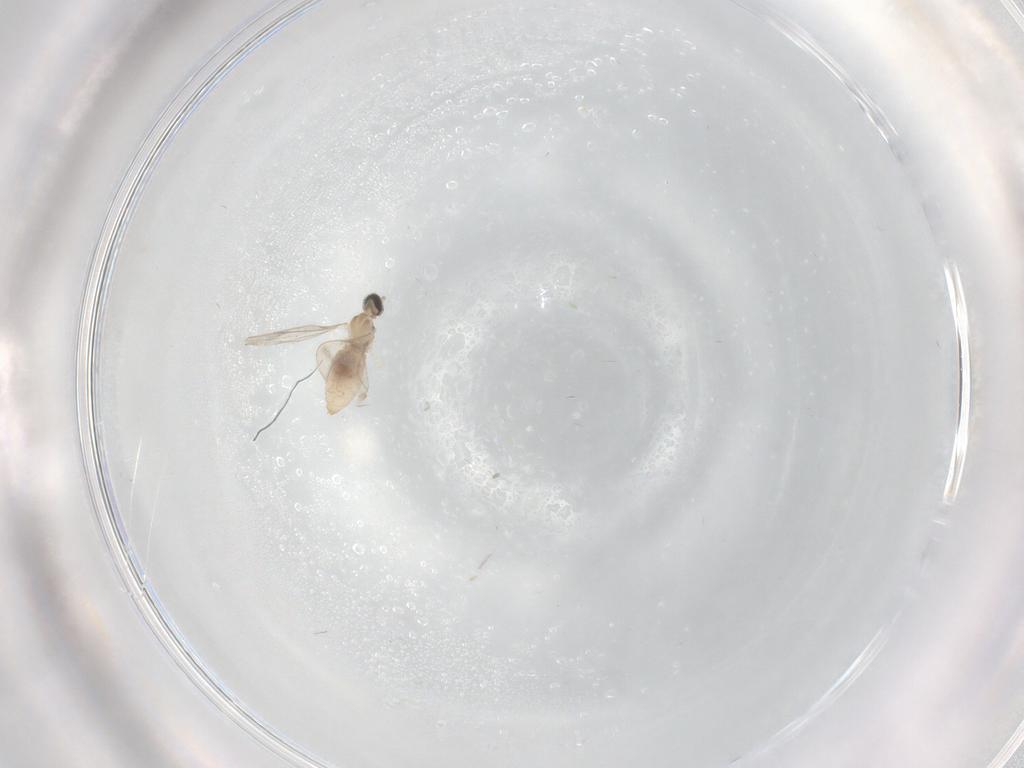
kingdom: Animalia
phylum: Arthropoda
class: Insecta
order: Diptera
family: Cecidomyiidae
